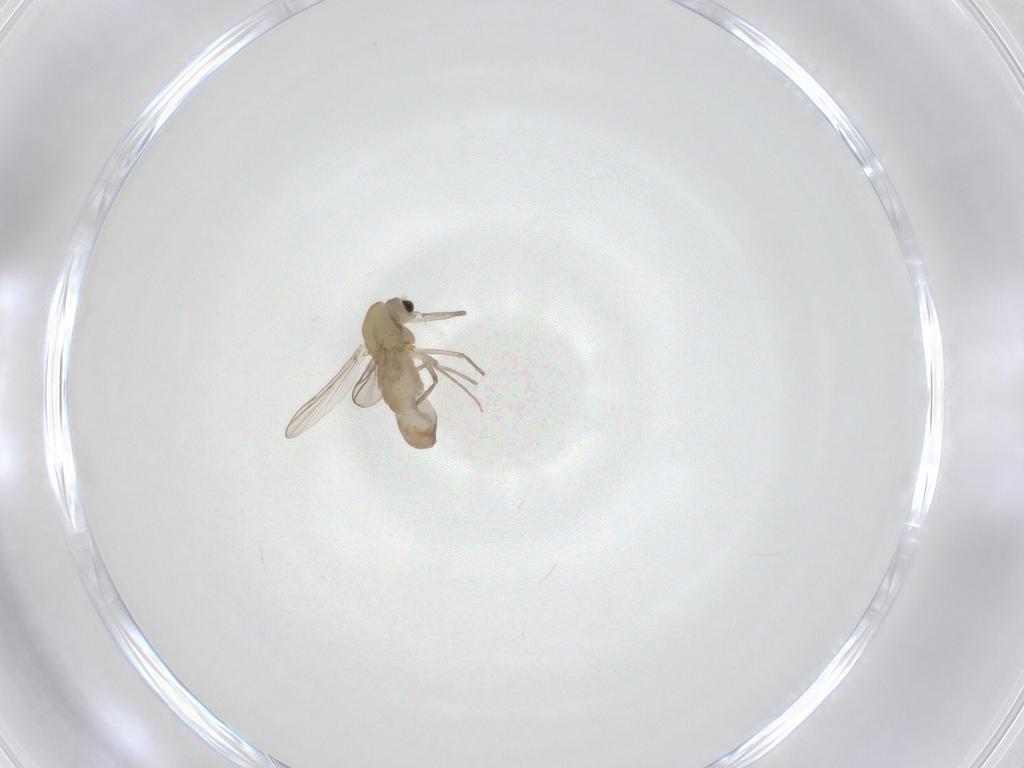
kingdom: Animalia
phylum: Arthropoda
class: Insecta
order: Diptera
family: Chironomidae
